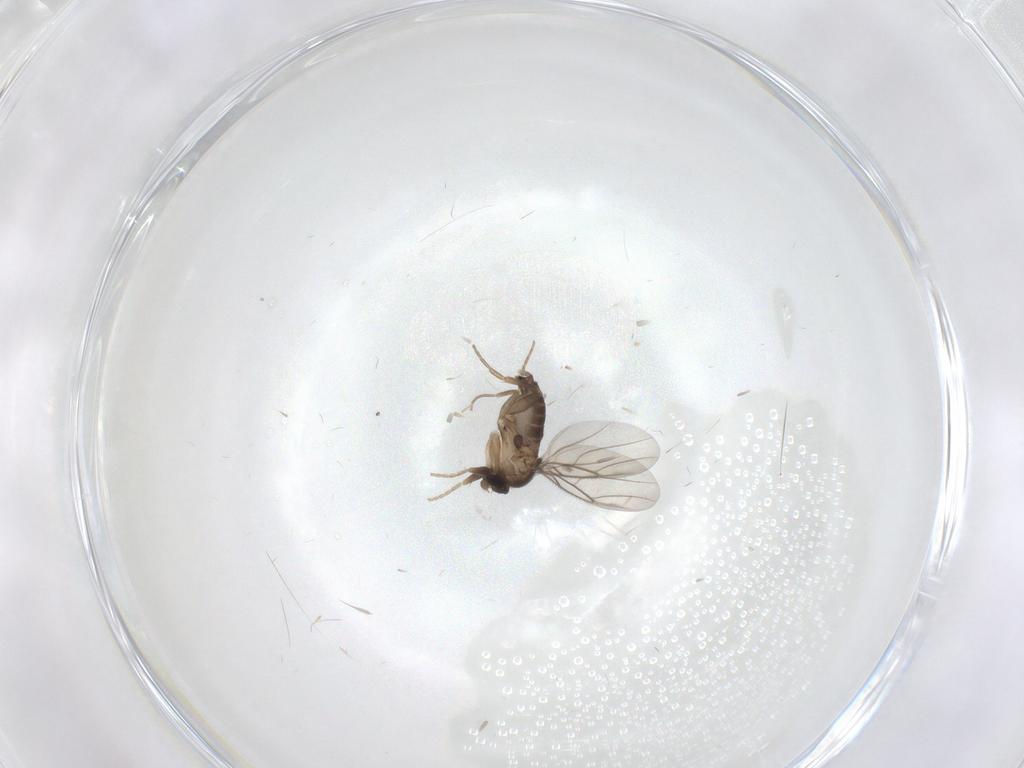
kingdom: Animalia
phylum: Arthropoda
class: Insecta
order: Diptera
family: Phoridae
